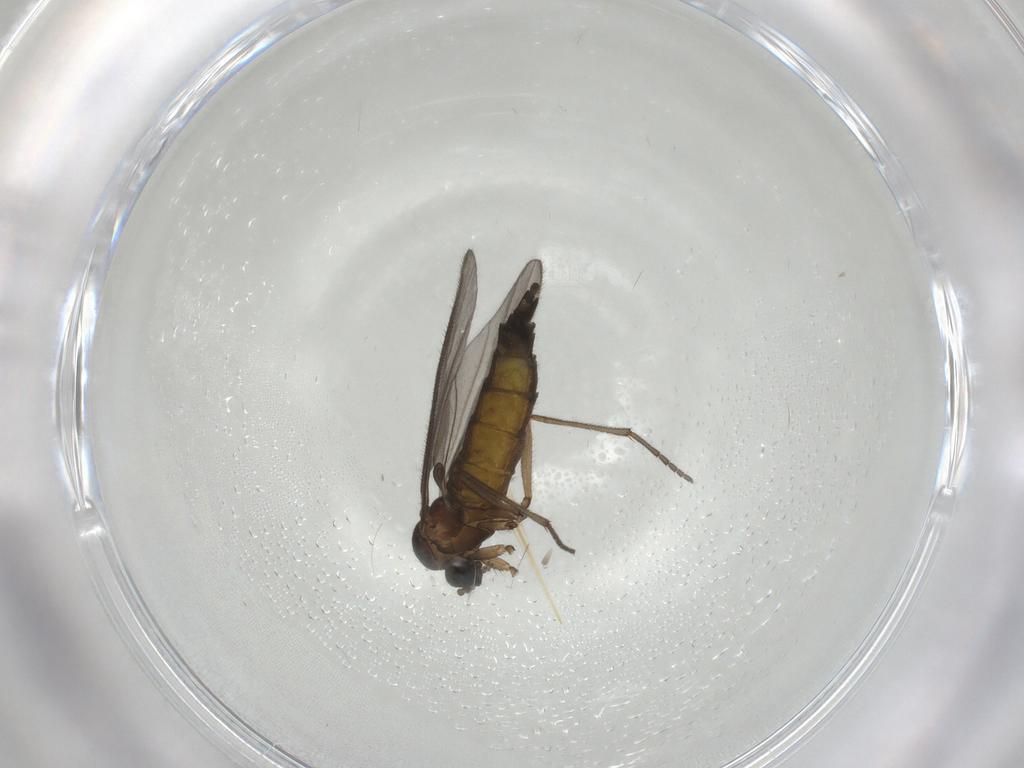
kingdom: Animalia
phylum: Arthropoda
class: Insecta
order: Diptera
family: Sciaridae
